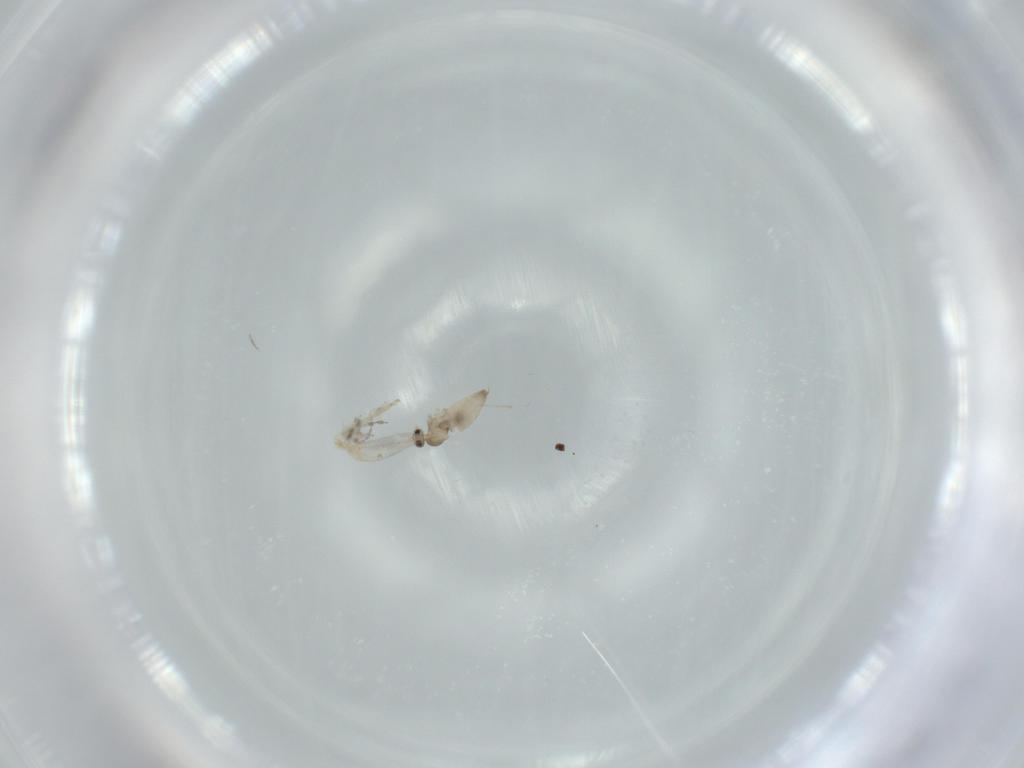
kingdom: Animalia
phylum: Arthropoda
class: Insecta
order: Diptera
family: Cecidomyiidae
